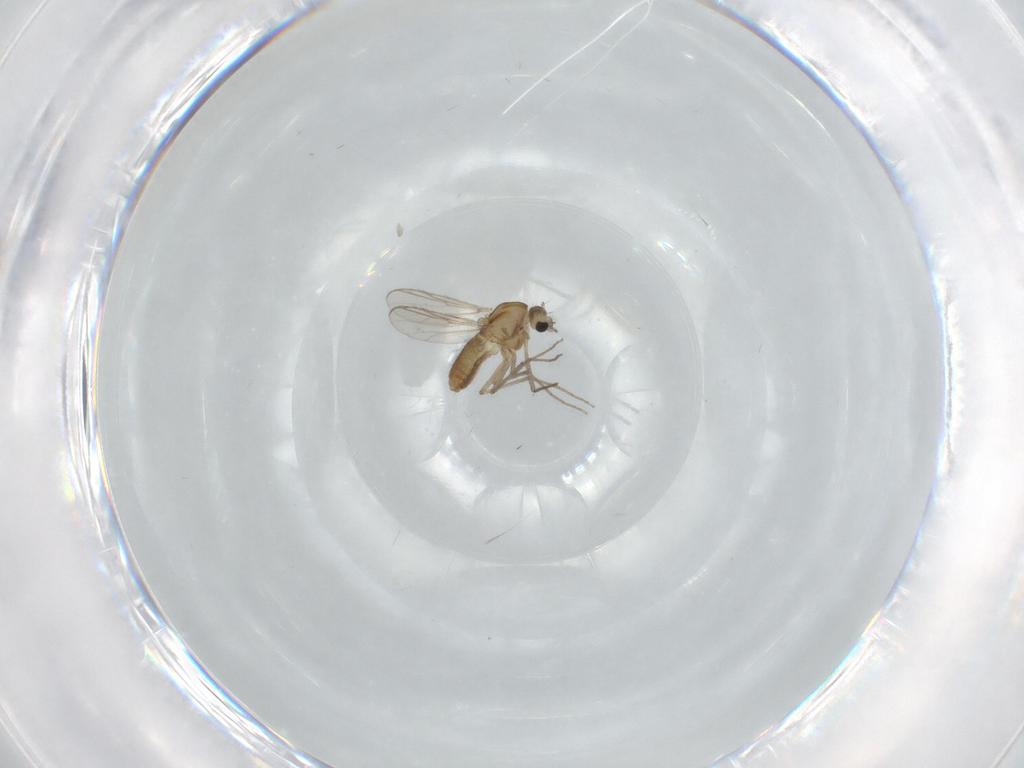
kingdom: Animalia
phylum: Arthropoda
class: Insecta
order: Diptera
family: Chironomidae
